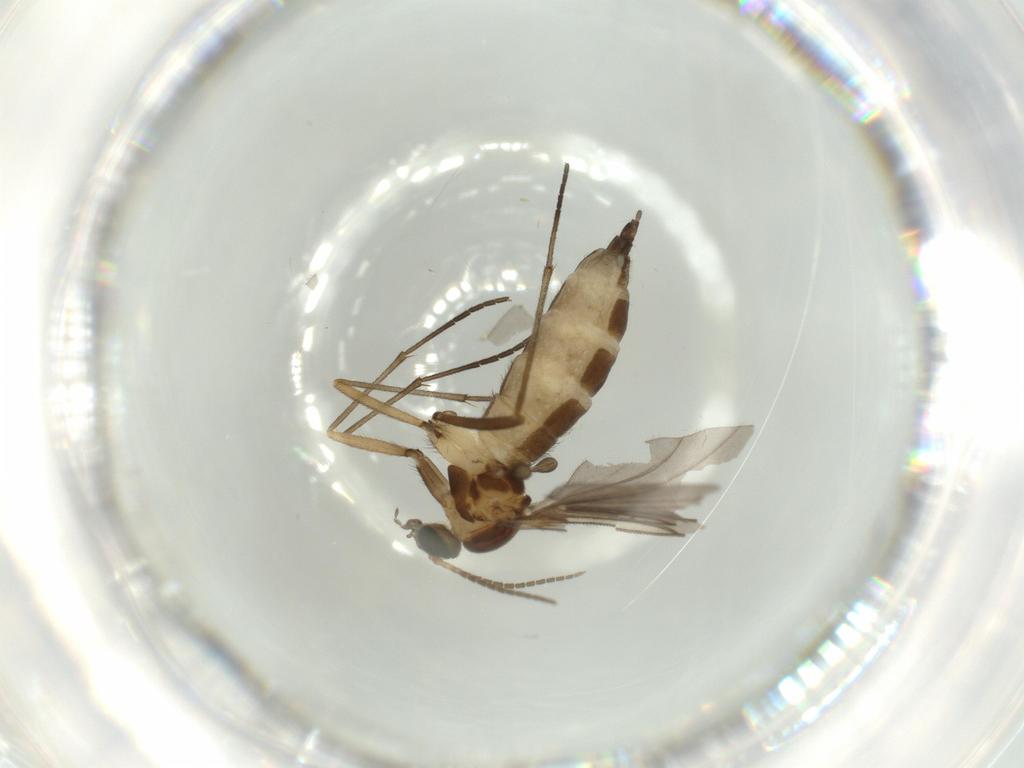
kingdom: Animalia
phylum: Arthropoda
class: Insecta
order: Diptera
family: Sciaridae
